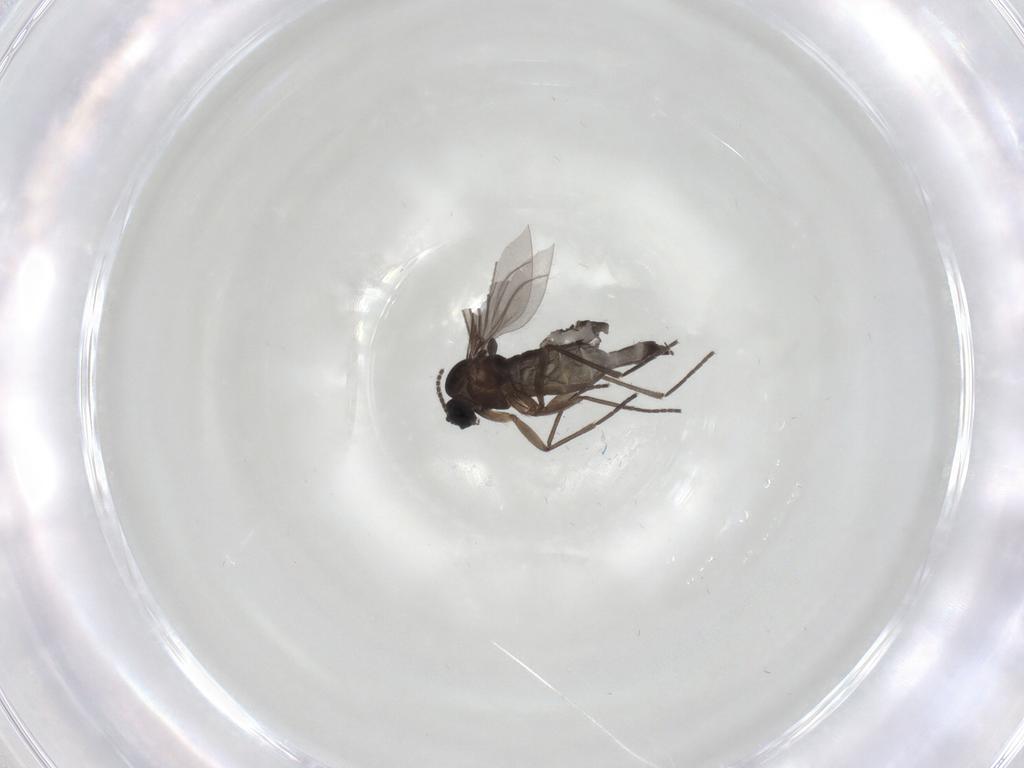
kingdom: Animalia
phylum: Arthropoda
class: Insecta
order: Diptera
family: Sciaridae
